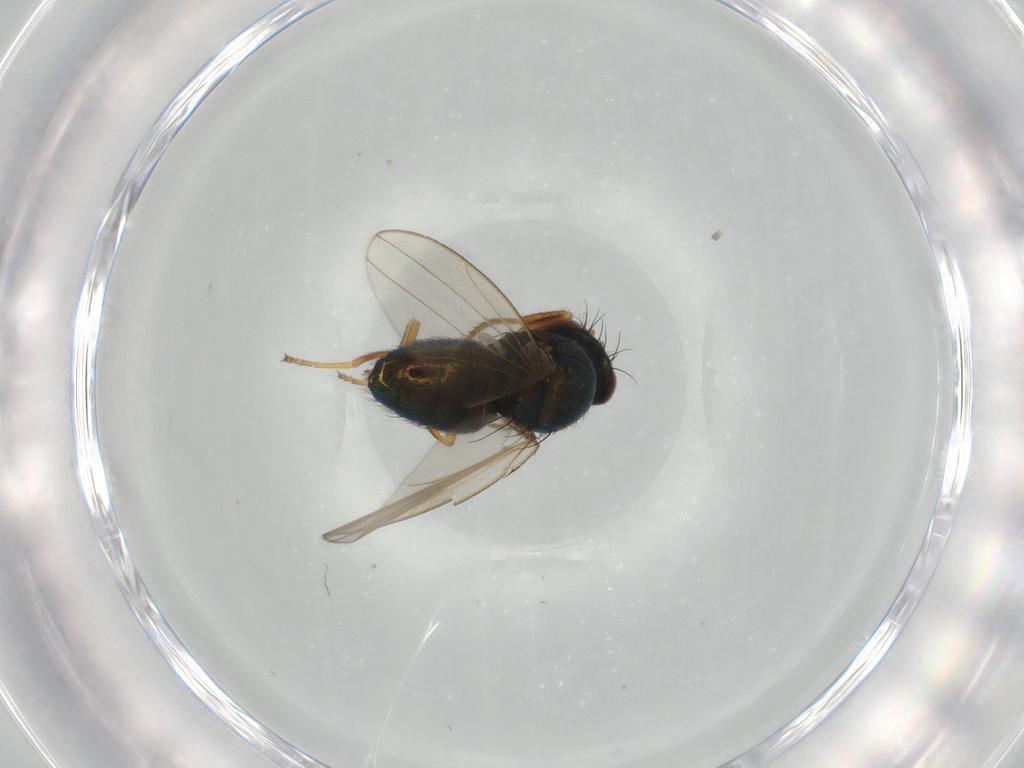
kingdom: Animalia
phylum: Arthropoda
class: Insecta
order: Diptera
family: Ephydridae
